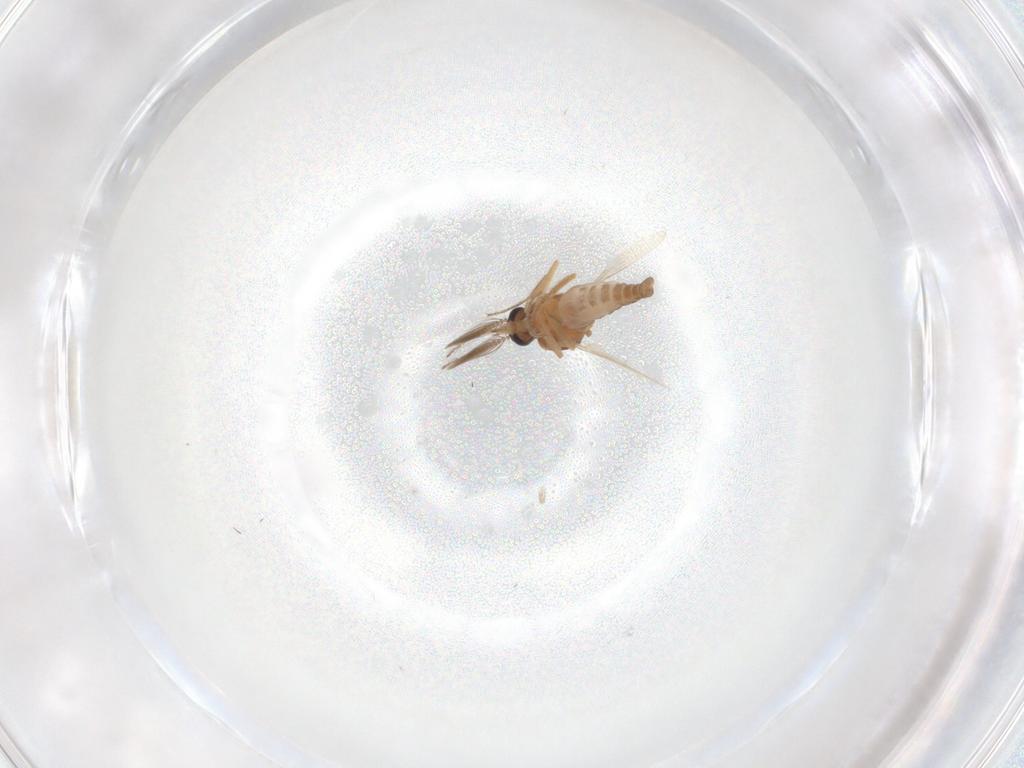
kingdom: Animalia
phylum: Arthropoda
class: Insecta
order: Diptera
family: Ceratopogonidae
